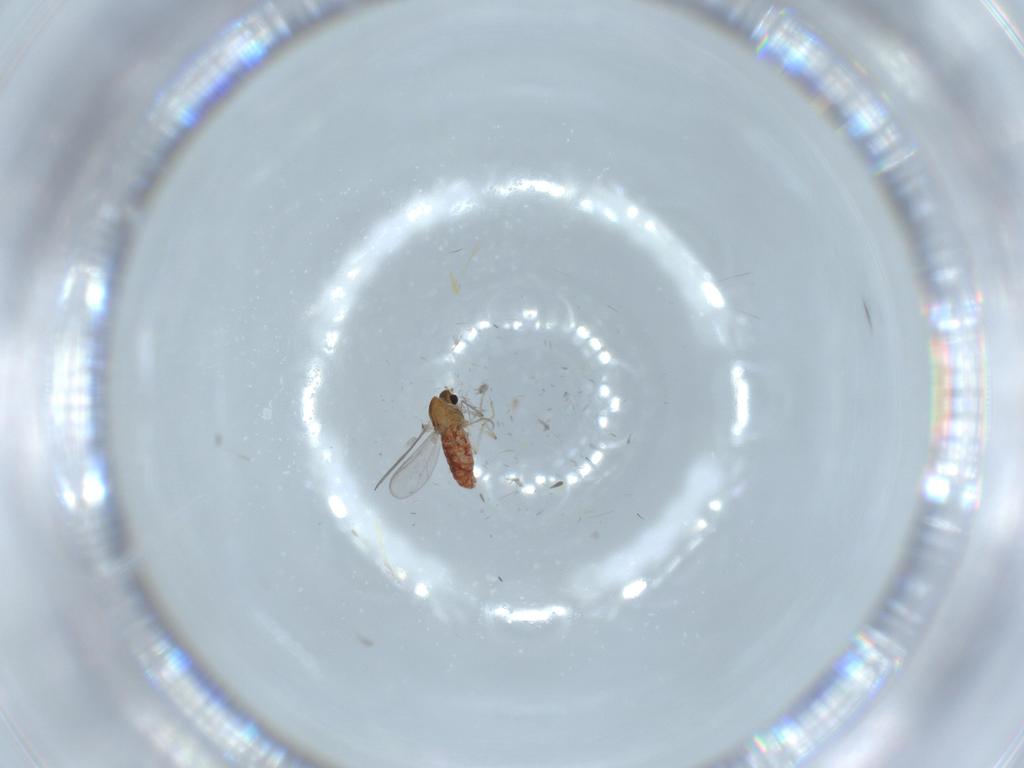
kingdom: Animalia
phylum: Arthropoda
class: Insecta
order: Diptera
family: Chironomidae
